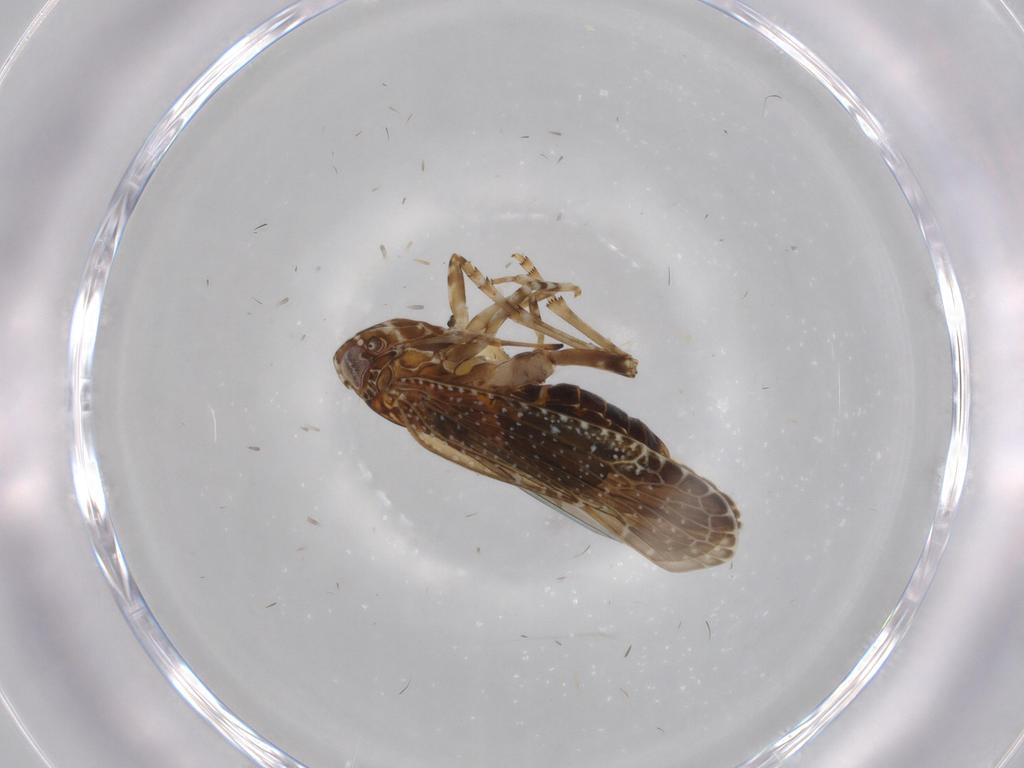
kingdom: Animalia
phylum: Arthropoda
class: Insecta
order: Hymenoptera
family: Dryinidae
